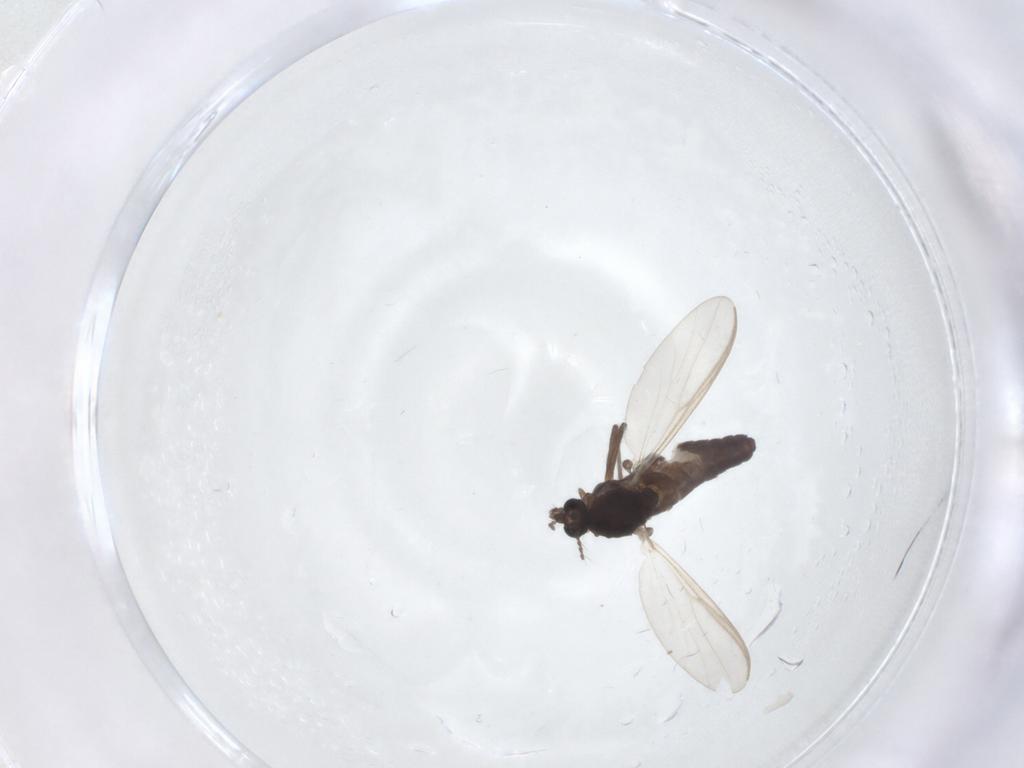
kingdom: Animalia
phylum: Arthropoda
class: Insecta
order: Diptera
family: Chironomidae
